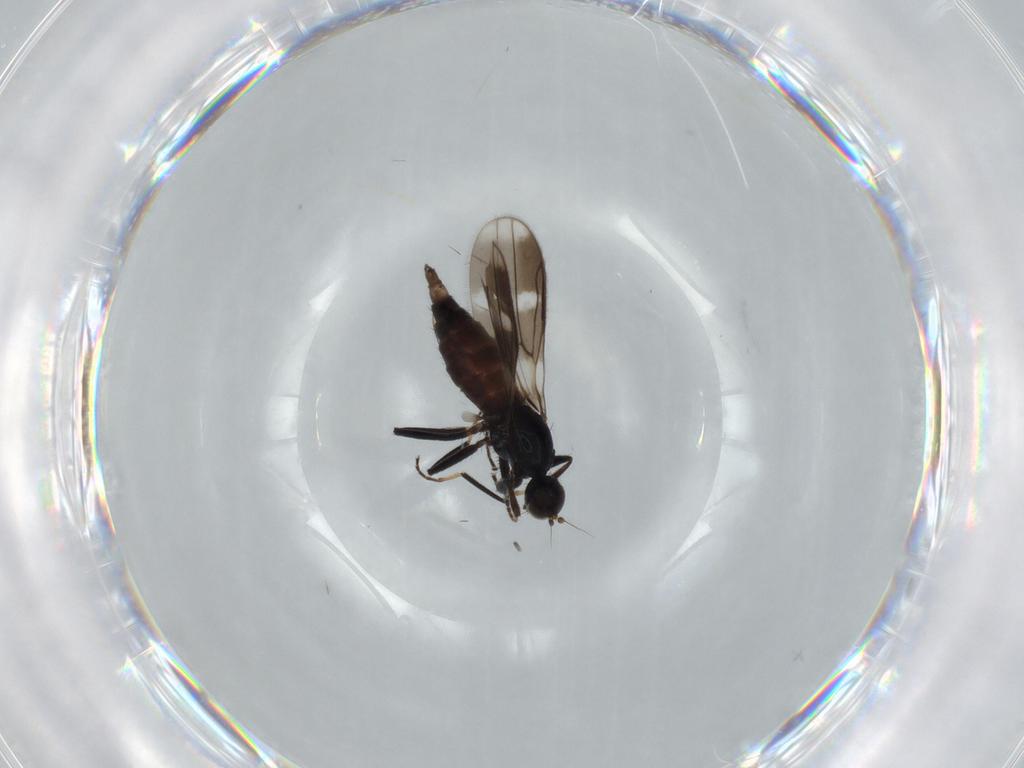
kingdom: Animalia
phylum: Arthropoda
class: Insecta
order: Diptera
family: Hybotidae
